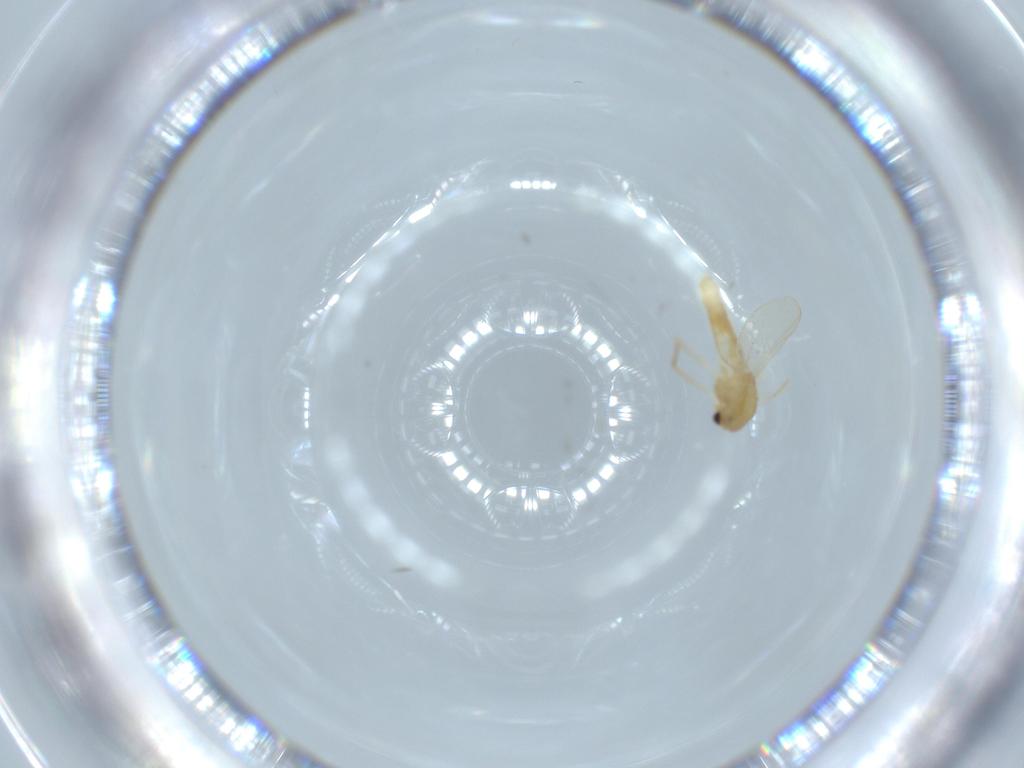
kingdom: Animalia
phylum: Arthropoda
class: Insecta
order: Diptera
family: Chironomidae
